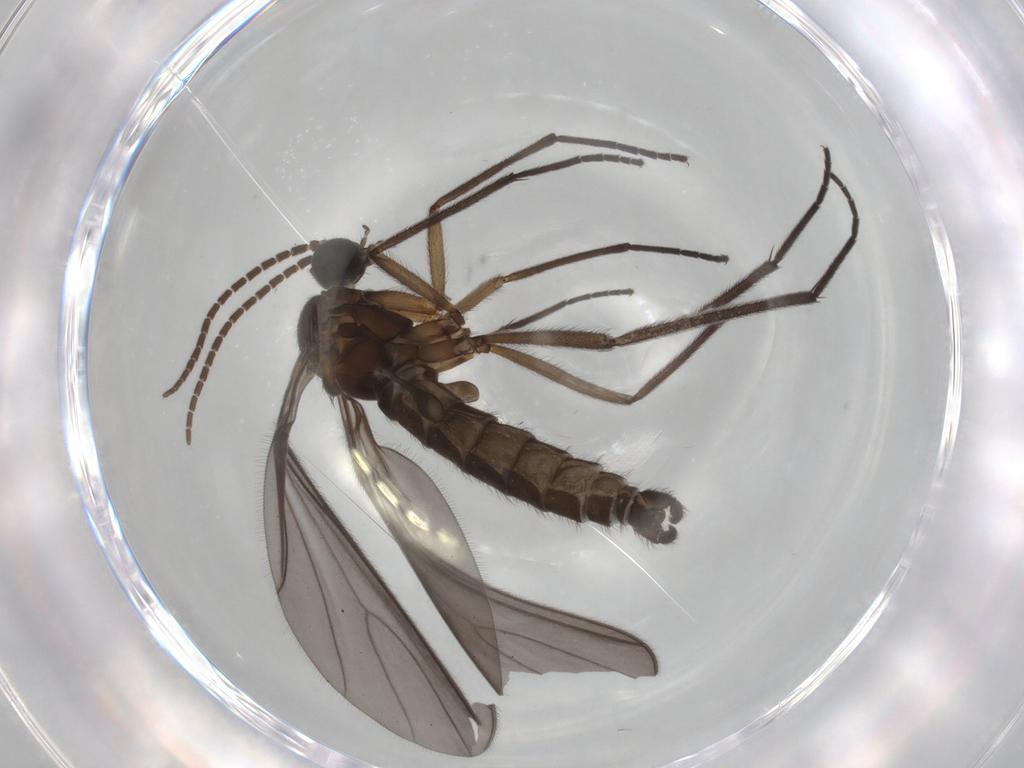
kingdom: Animalia
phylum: Arthropoda
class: Insecta
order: Diptera
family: Sciaridae
